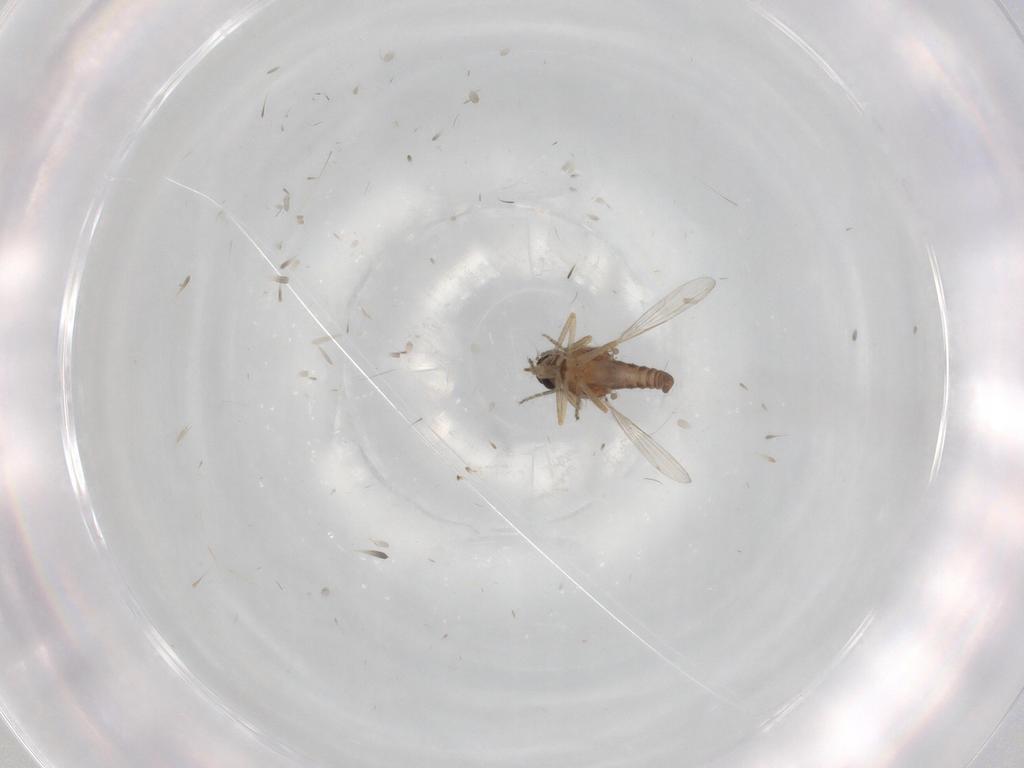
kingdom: Animalia
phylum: Arthropoda
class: Insecta
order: Diptera
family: Ceratopogonidae
